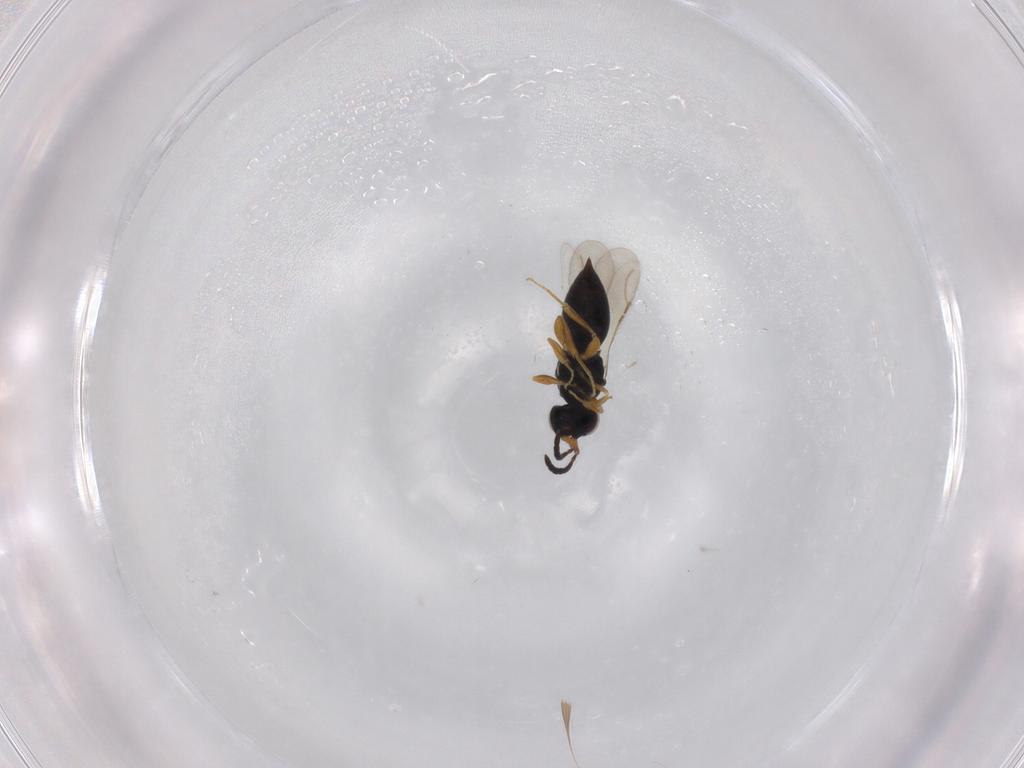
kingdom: Animalia
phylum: Arthropoda
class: Insecta
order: Hymenoptera
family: Ceraphronidae
